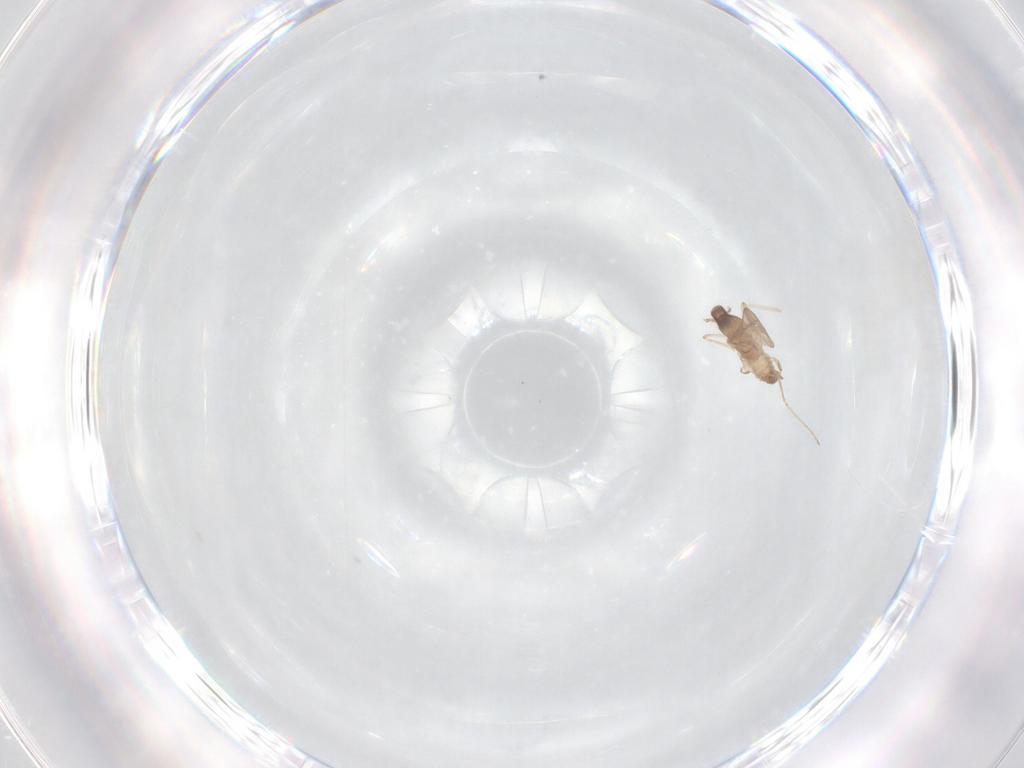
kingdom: Animalia
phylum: Arthropoda
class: Insecta
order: Diptera
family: Cecidomyiidae
